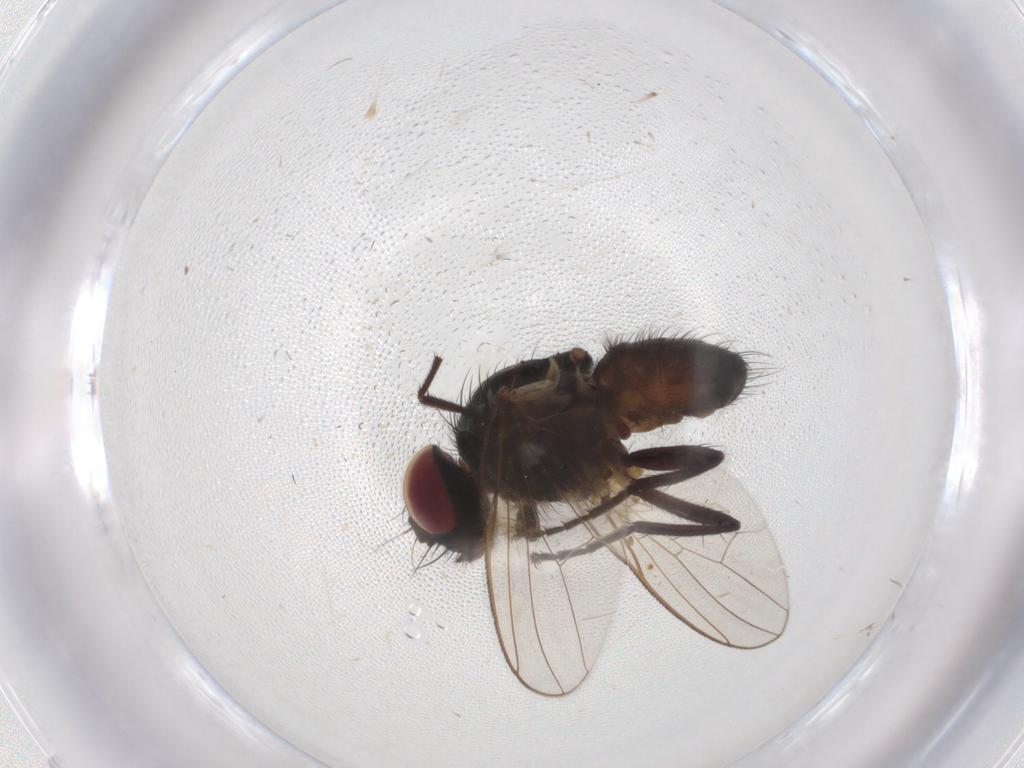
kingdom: Animalia
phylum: Arthropoda
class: Insecta
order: Diptera
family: Muscidae
